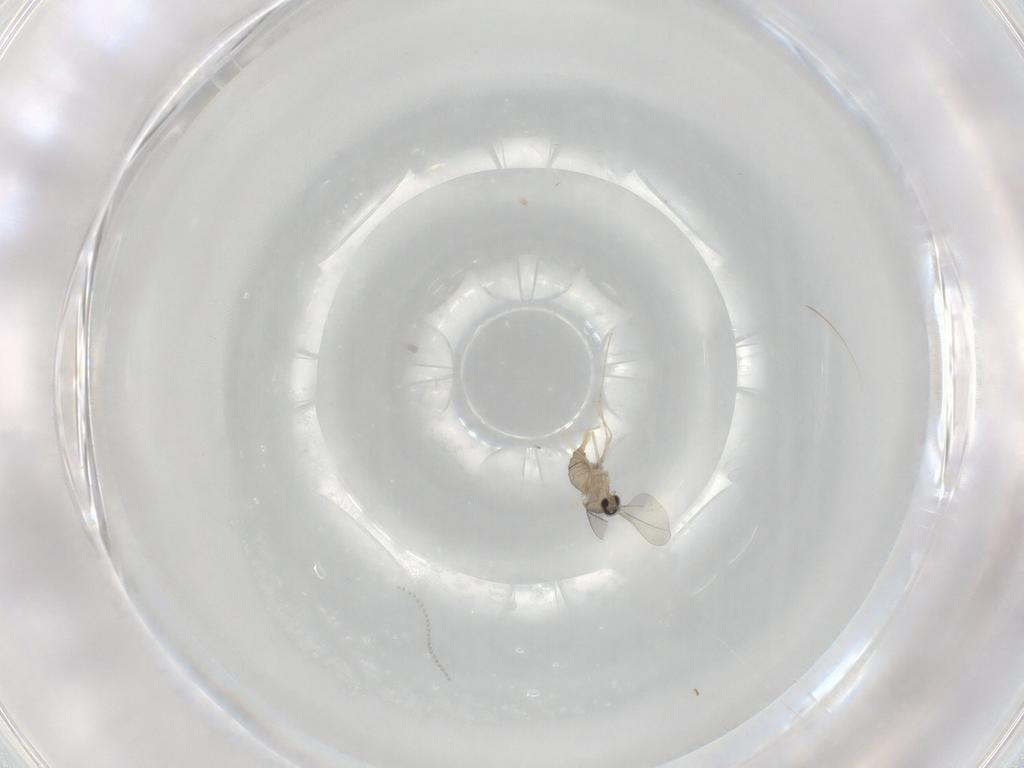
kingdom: Animalia
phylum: Arthropoda
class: Insecta
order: Diptera
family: Cecidomyiidae
